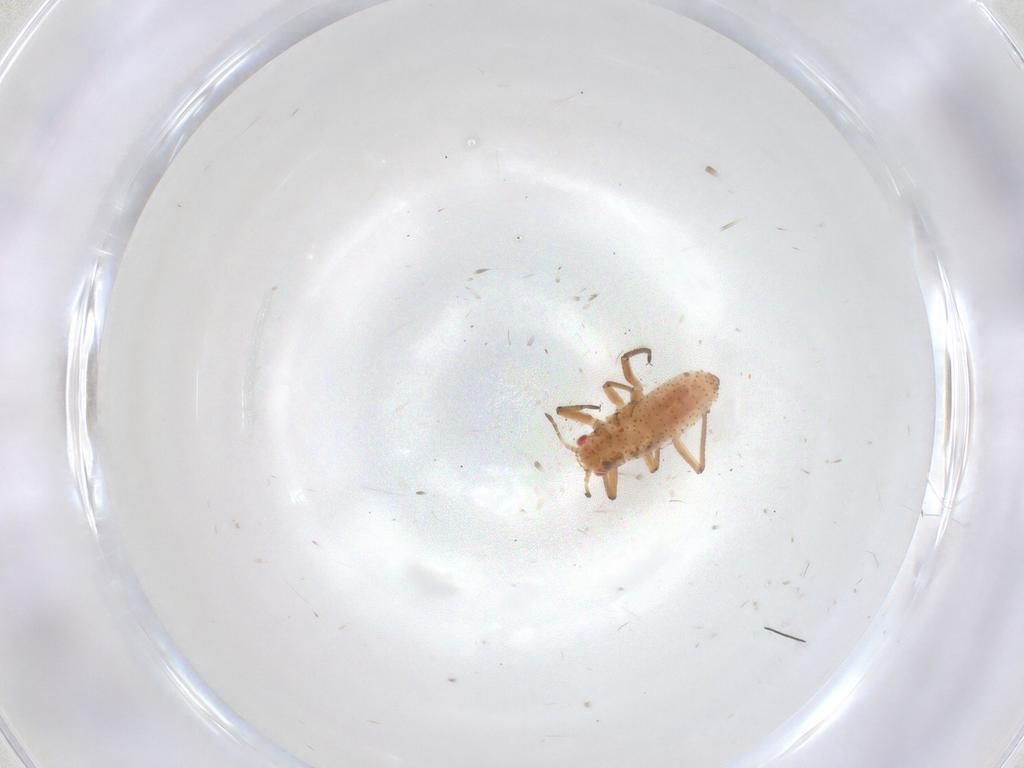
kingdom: Animalia
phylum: Arthropoda
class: Insecta
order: Hemiptera
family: Aphididae
